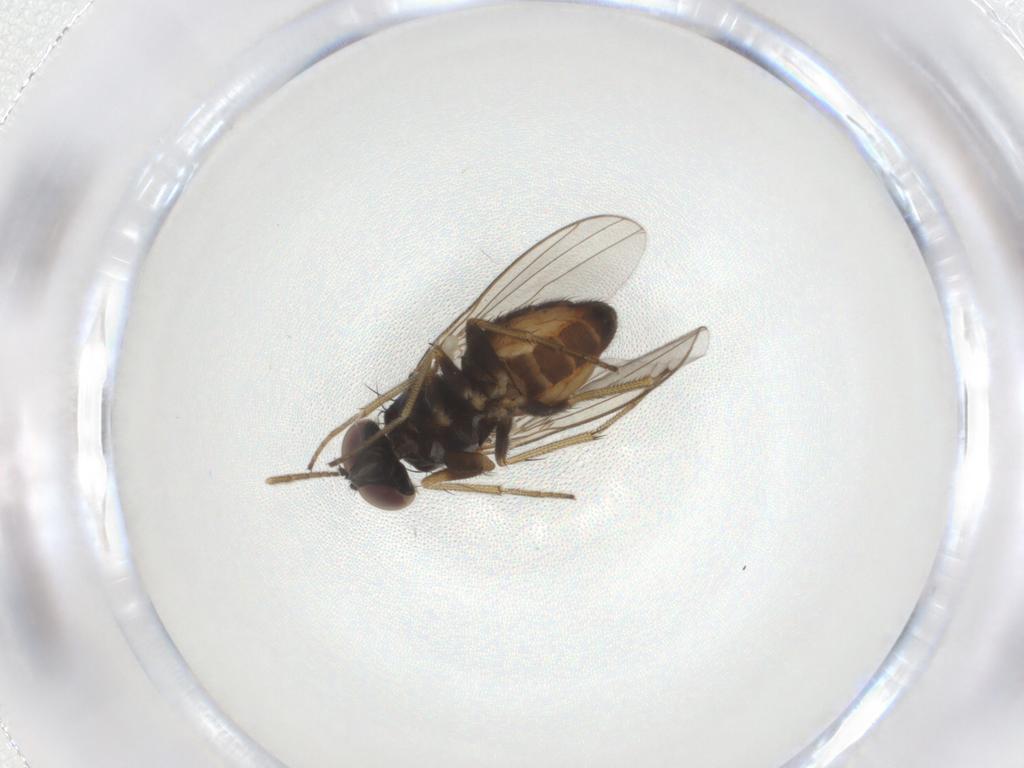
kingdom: Animalia
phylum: Arthropoda
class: Insecta
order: Diptera
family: Dolichopodidae
